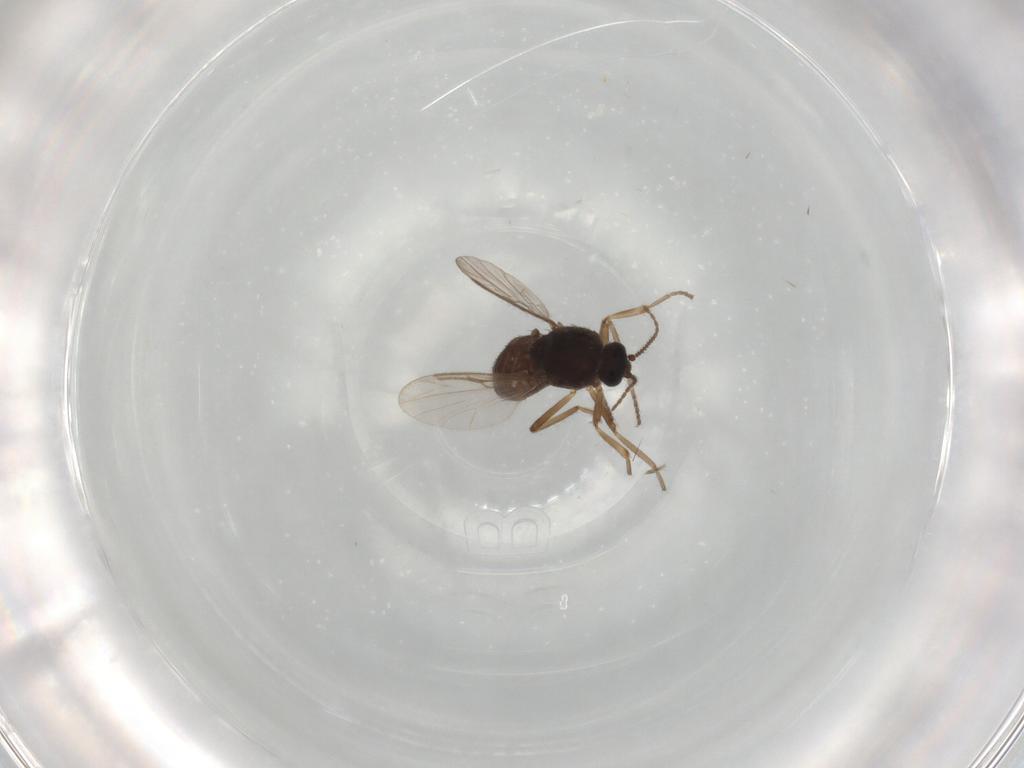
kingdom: Animalia
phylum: Arthropoda
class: Insecta
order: Diptera
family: Ceratopogonidae
